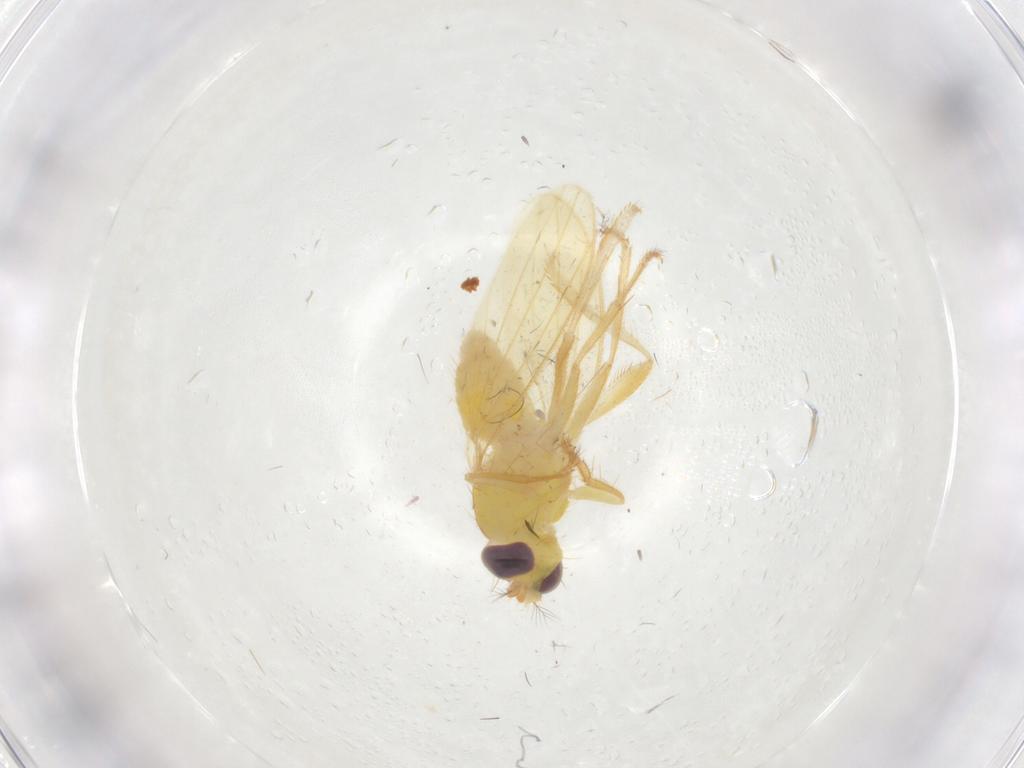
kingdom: Animalia
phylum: Arthropoda
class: Insecta
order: Diptera
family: Periscelididae
